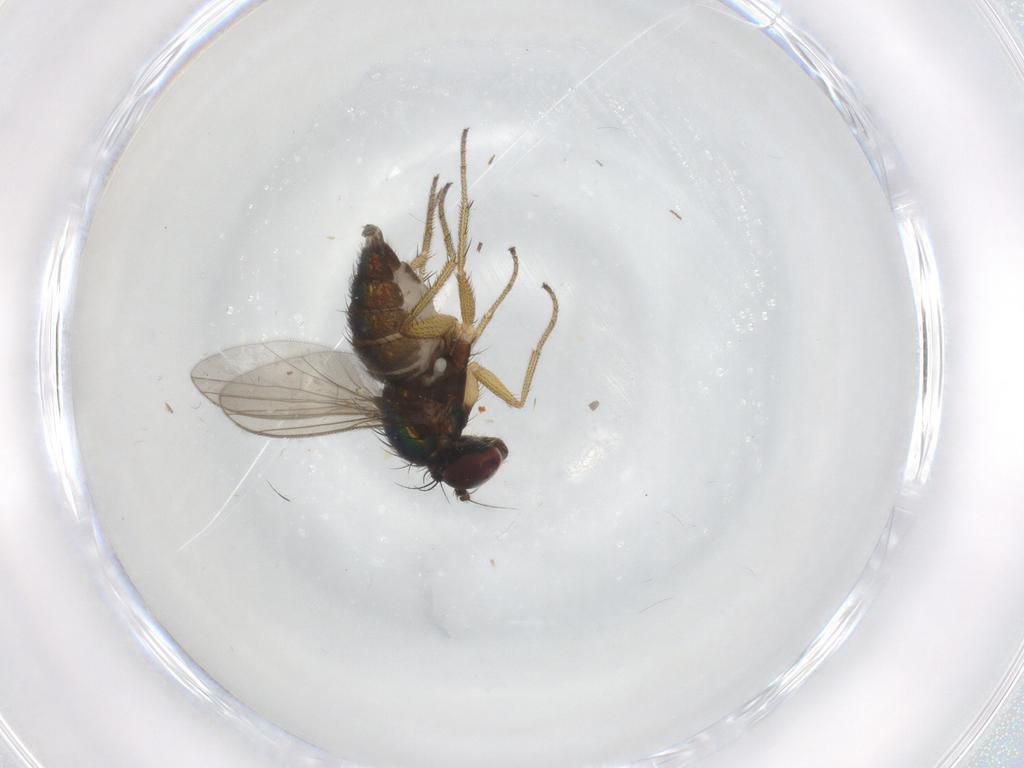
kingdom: Animalia
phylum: Arthropoda
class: Insecta
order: Diptera
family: Dolichopodidae
